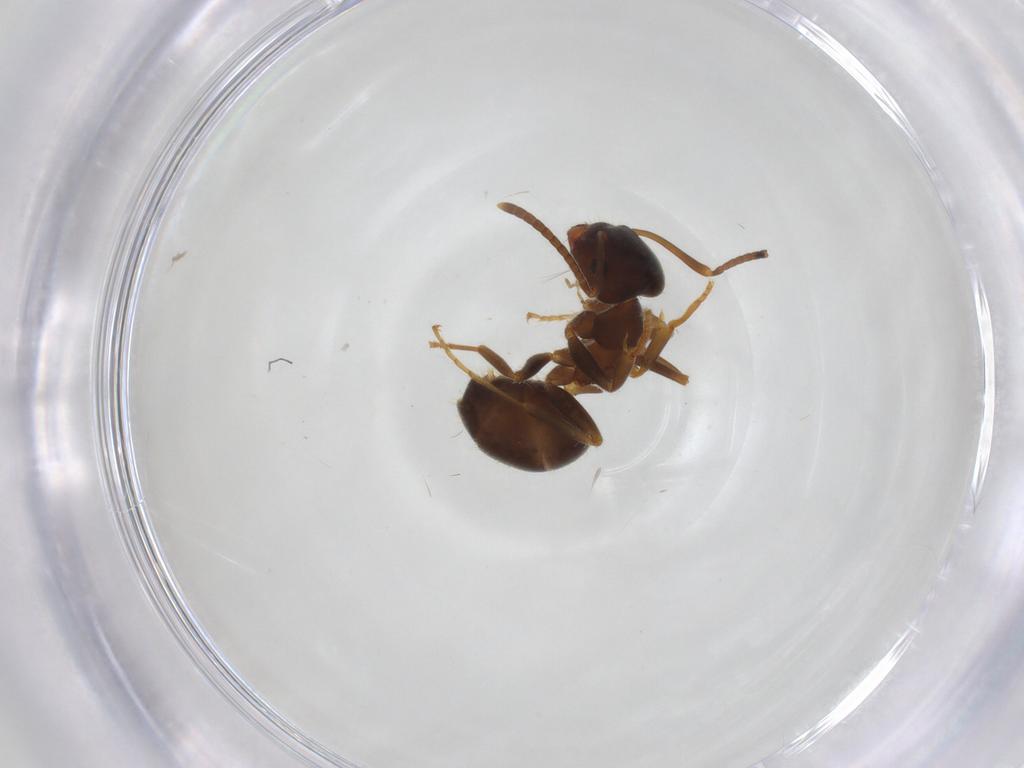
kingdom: Animalia
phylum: Arthropoda
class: Insecta
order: Hymenoptera
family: Formicidae
